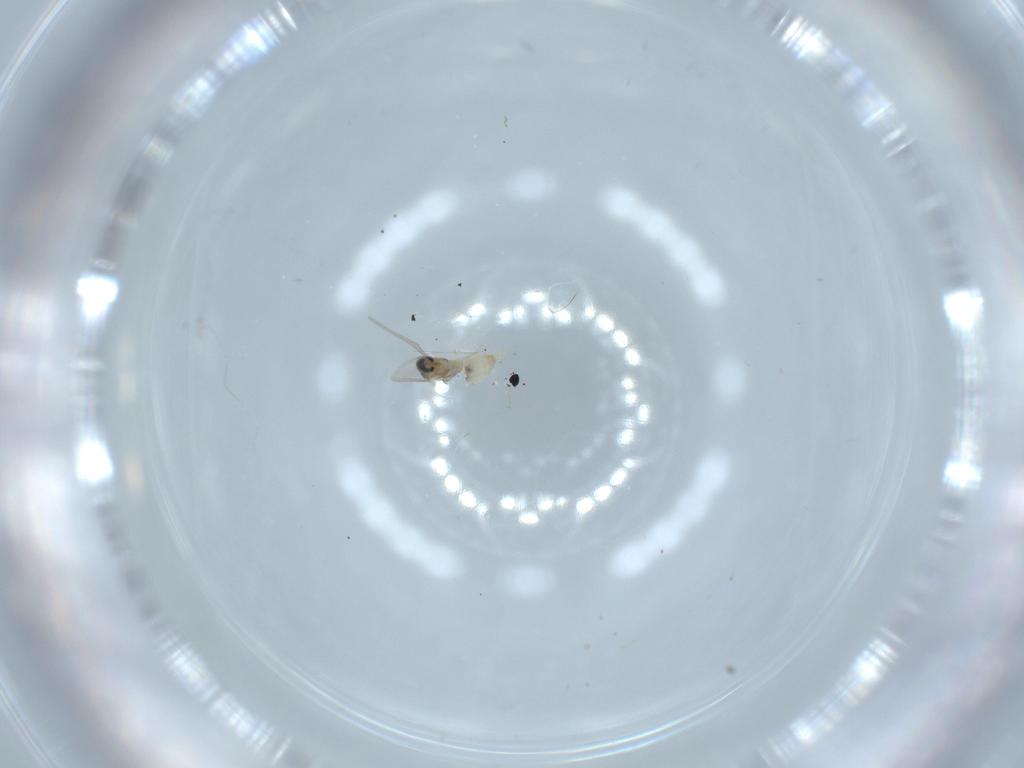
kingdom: Animalia
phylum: Arthropoda
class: Insecta
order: Diptera
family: Cecidomyiidae
